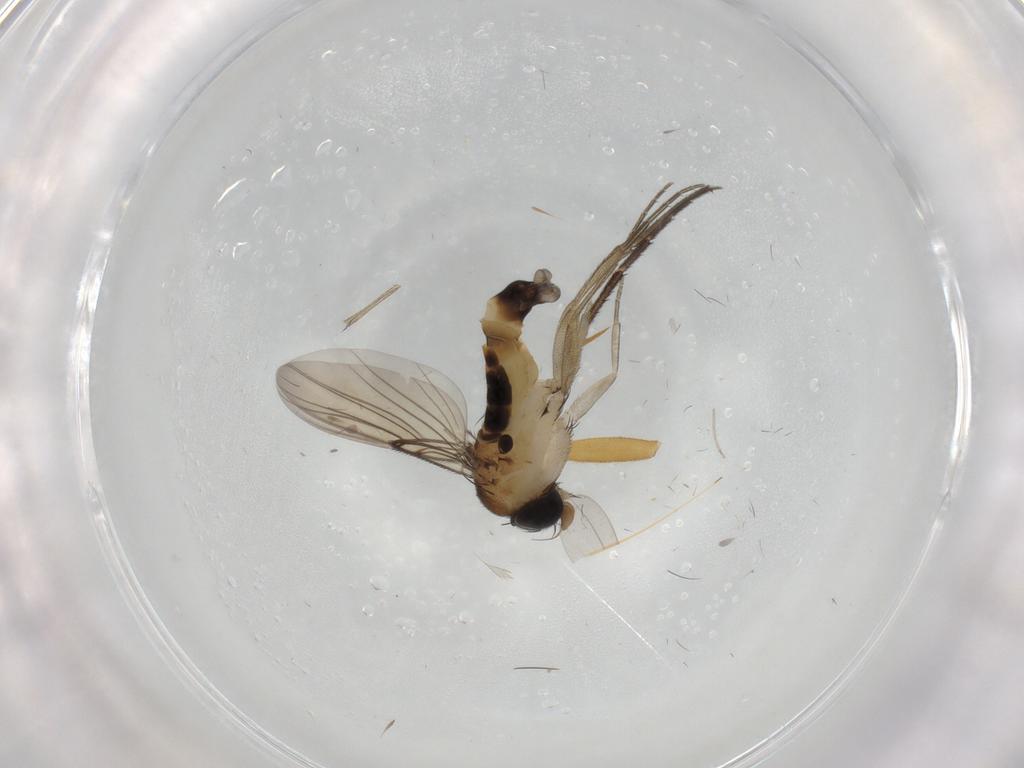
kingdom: Animalia
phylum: Arthropoda
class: Insecta
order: Diptera
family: Phoridae
